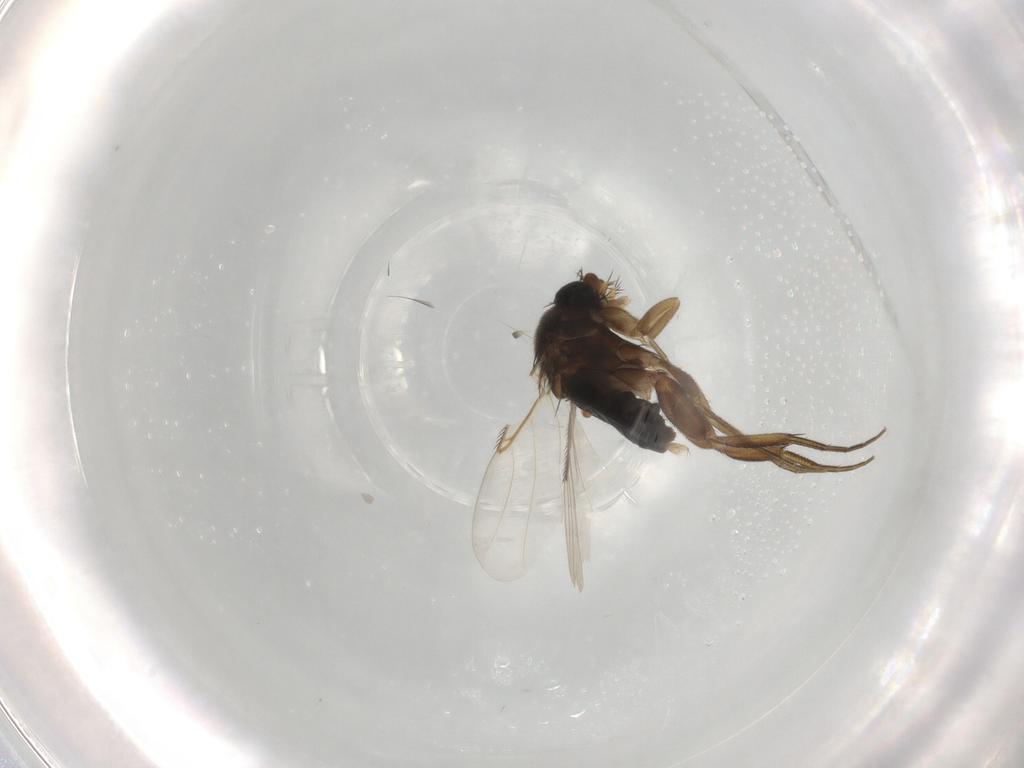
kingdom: Animalia
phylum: Arthropoda
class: Insecta
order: Diptera
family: Phoridae
